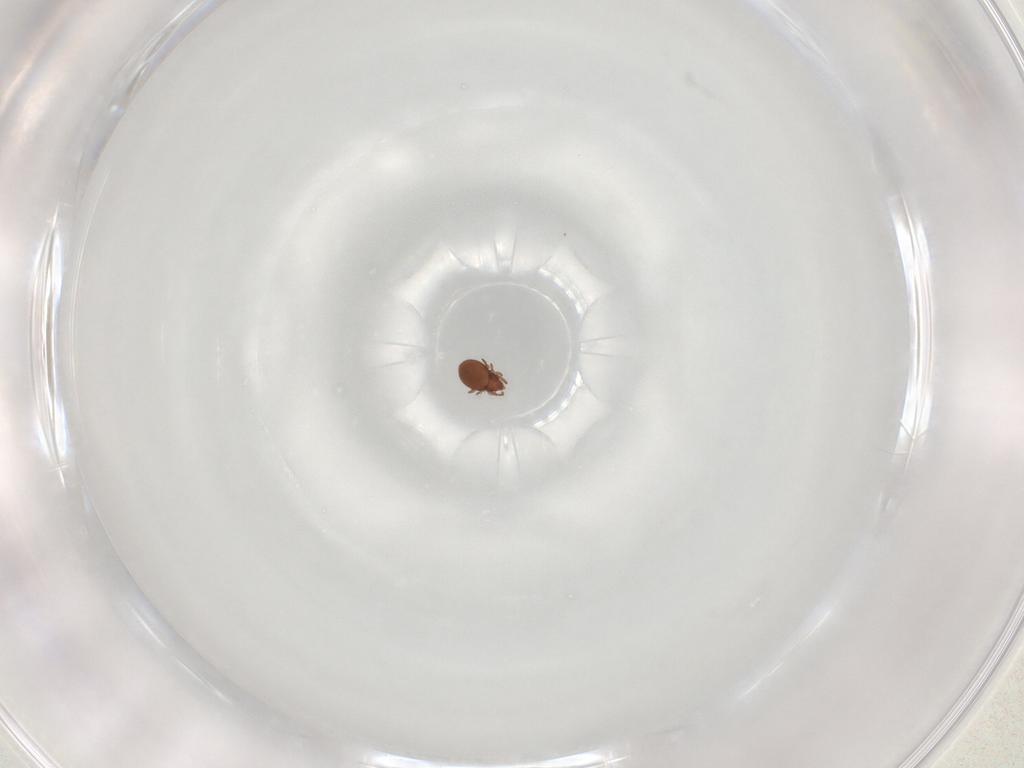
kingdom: Animalia
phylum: Arthropoda
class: Arachnida
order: Sarcoptiformes
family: Ceratoppiidae
